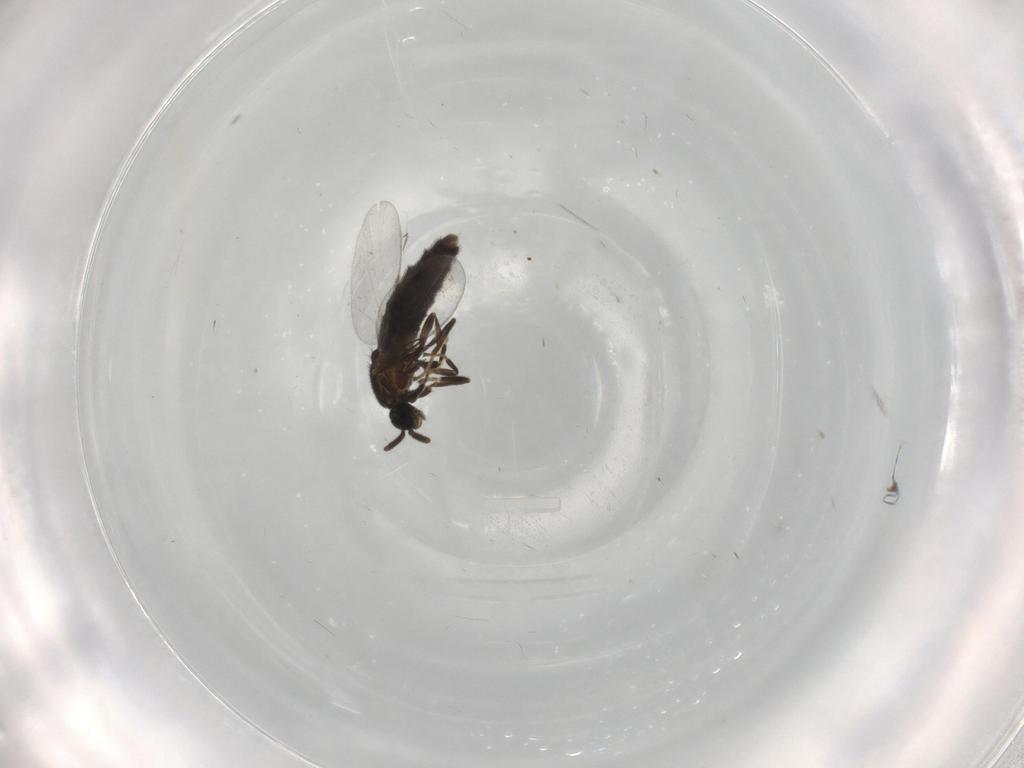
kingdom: Animalia
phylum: Arthropoda
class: Insecta
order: Diptera
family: Scatopsidae
